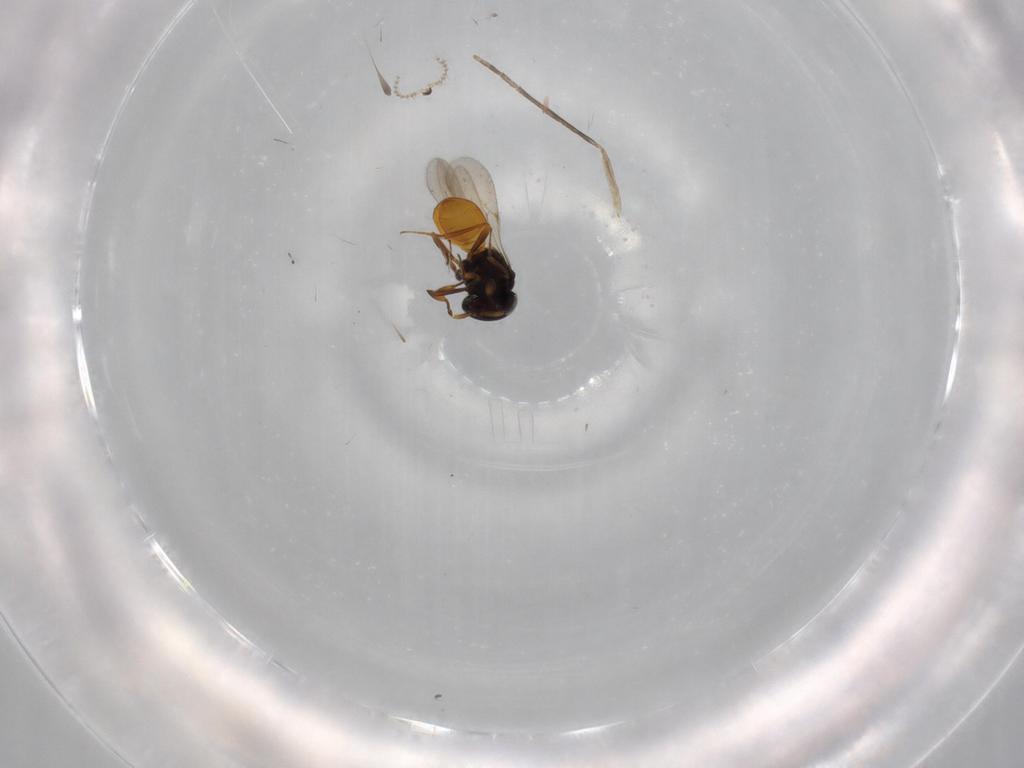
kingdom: Animalia
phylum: Arthropoda
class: Insecta
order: Hymenoptera
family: Scelionidae
